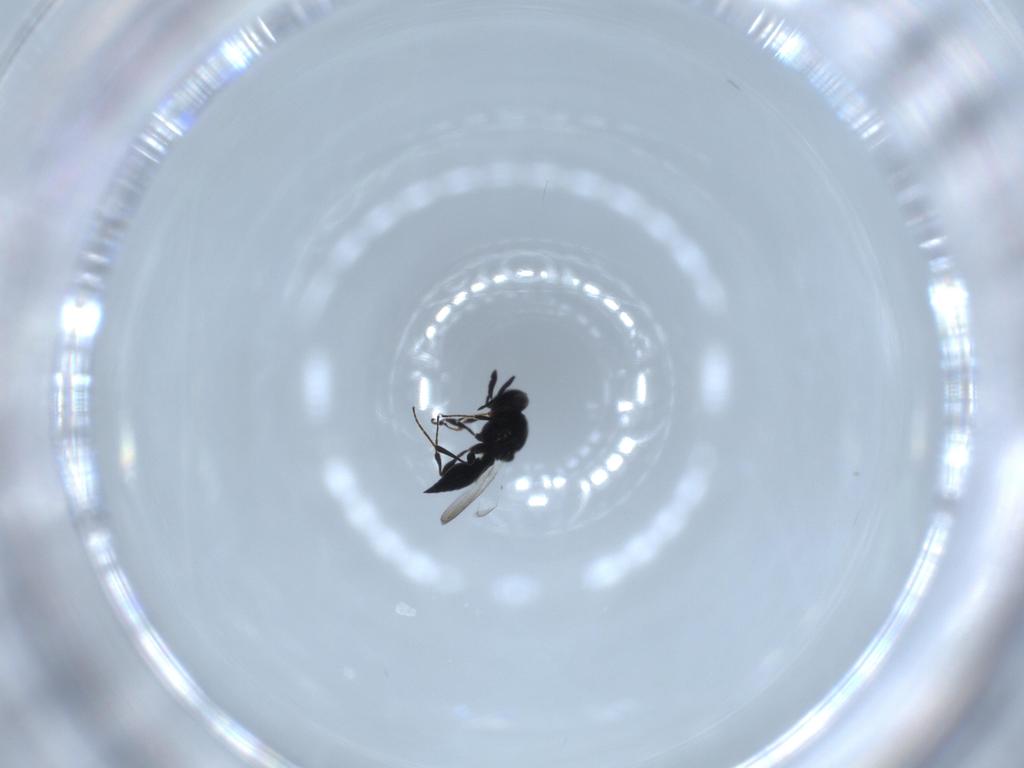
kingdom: Animalia
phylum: Arthropoda
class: Insecta
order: Diptera
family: Mythicomyiidae
